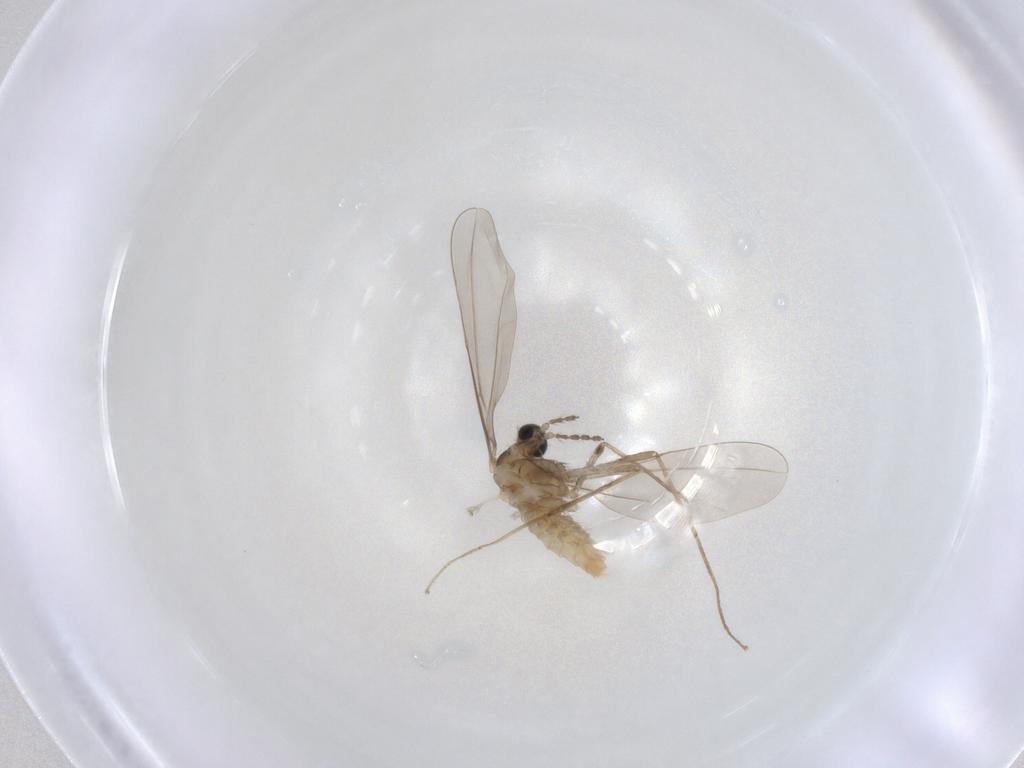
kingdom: Animalia
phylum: Arthropoda
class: Insecta
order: Diptera
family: Cecidomyiidae
